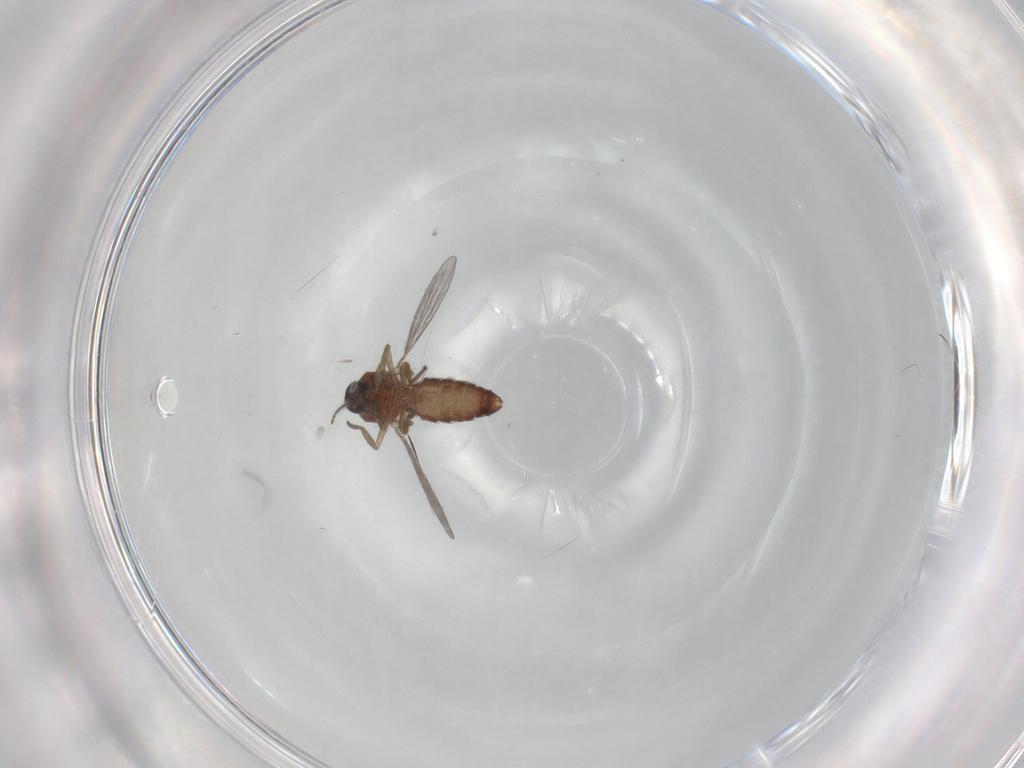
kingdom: Animalia
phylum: Arthropoda
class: Insecta
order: Diptera
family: Ceratopogonidae
